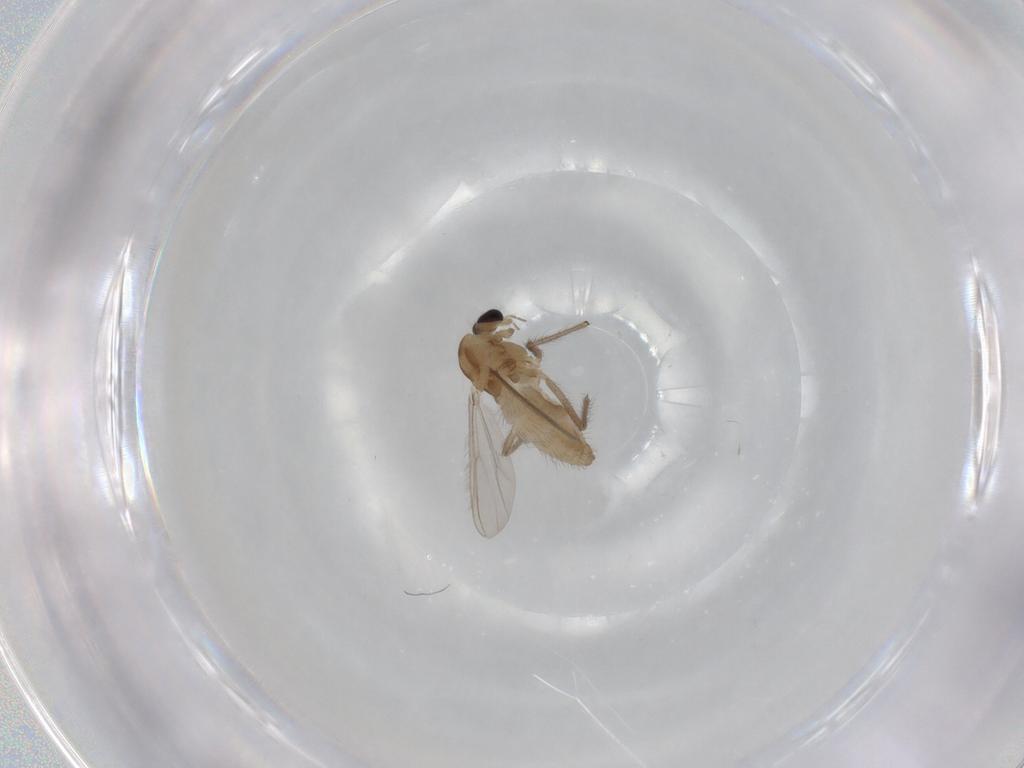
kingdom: Animalia
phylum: Arthropoda
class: Insecta
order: Diptera
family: Chironomidae
